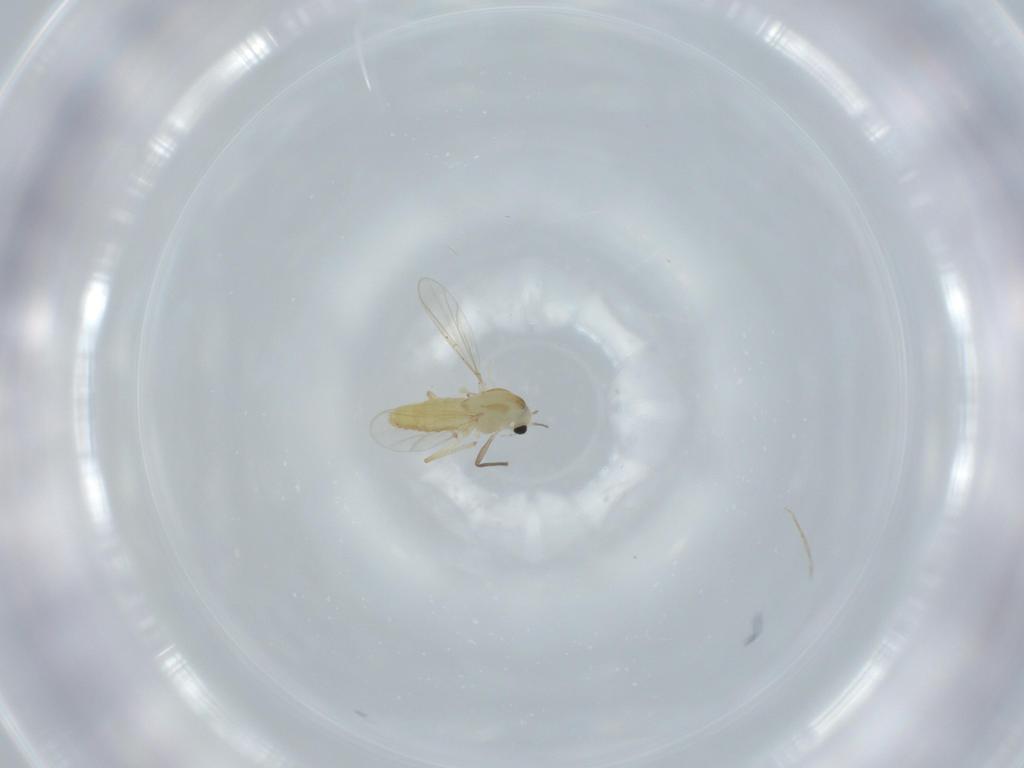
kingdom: Animalia
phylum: Arthropoda
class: Insecta
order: Diptera
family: Chironomidae
